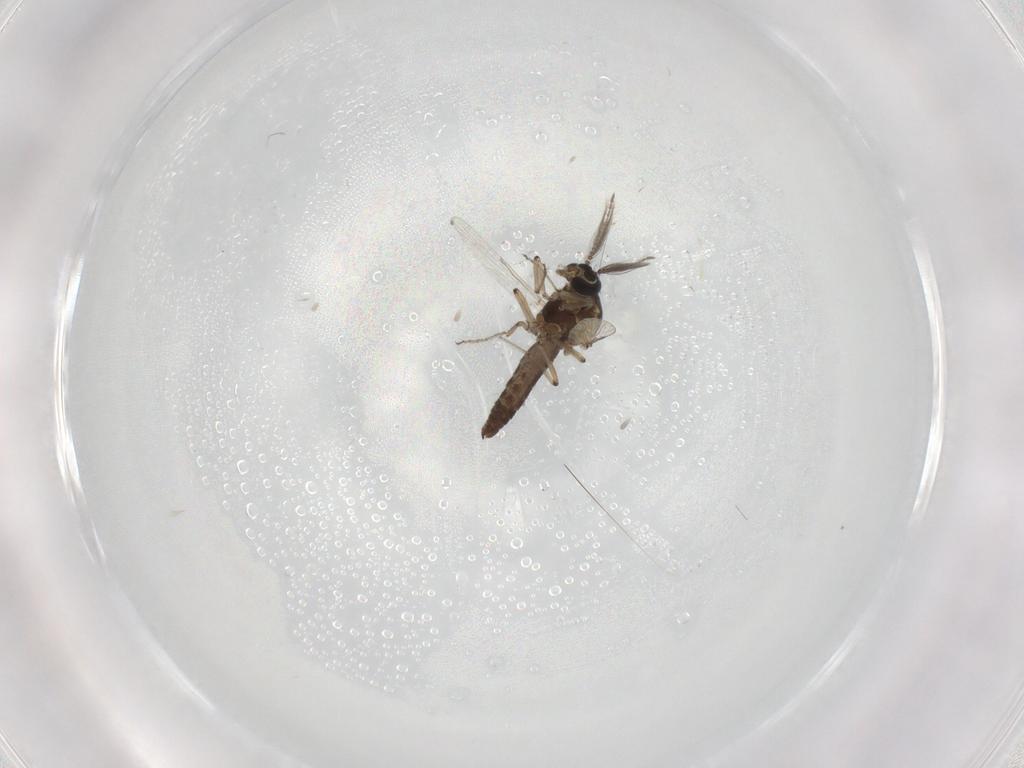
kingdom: Animalia
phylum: Arthropoda
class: Insecta
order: Diptera
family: Ceratopogonidae
